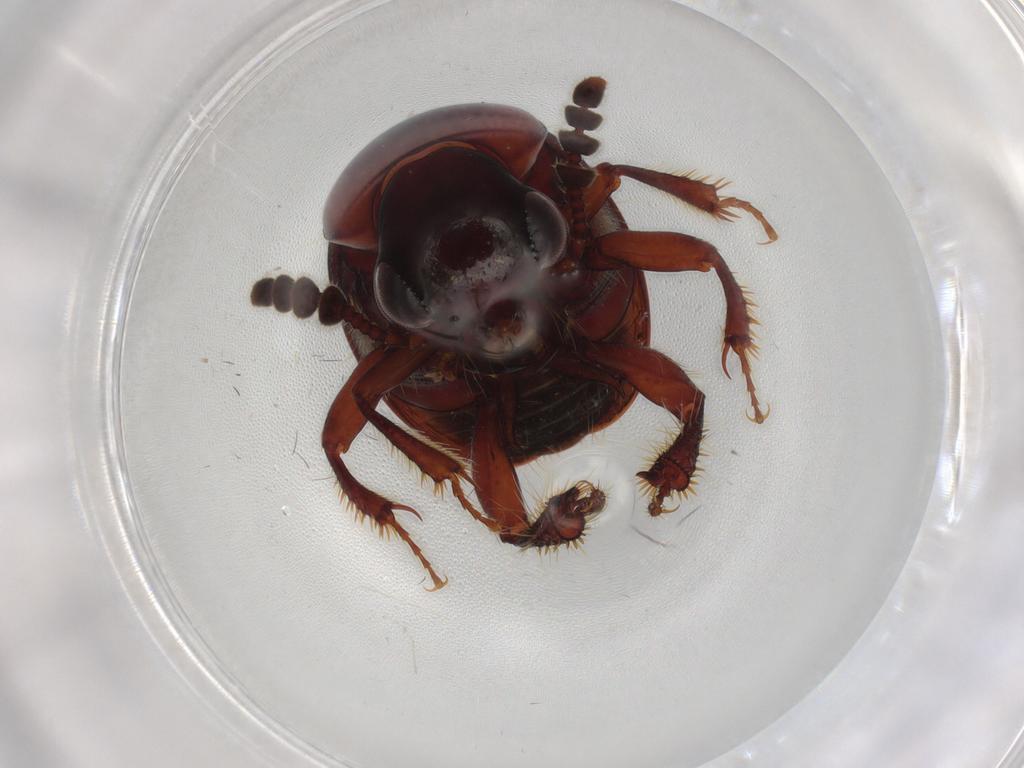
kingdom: Animalia
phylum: Arthropoda
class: Insecta
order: Coleoptera
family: Leiodidae
